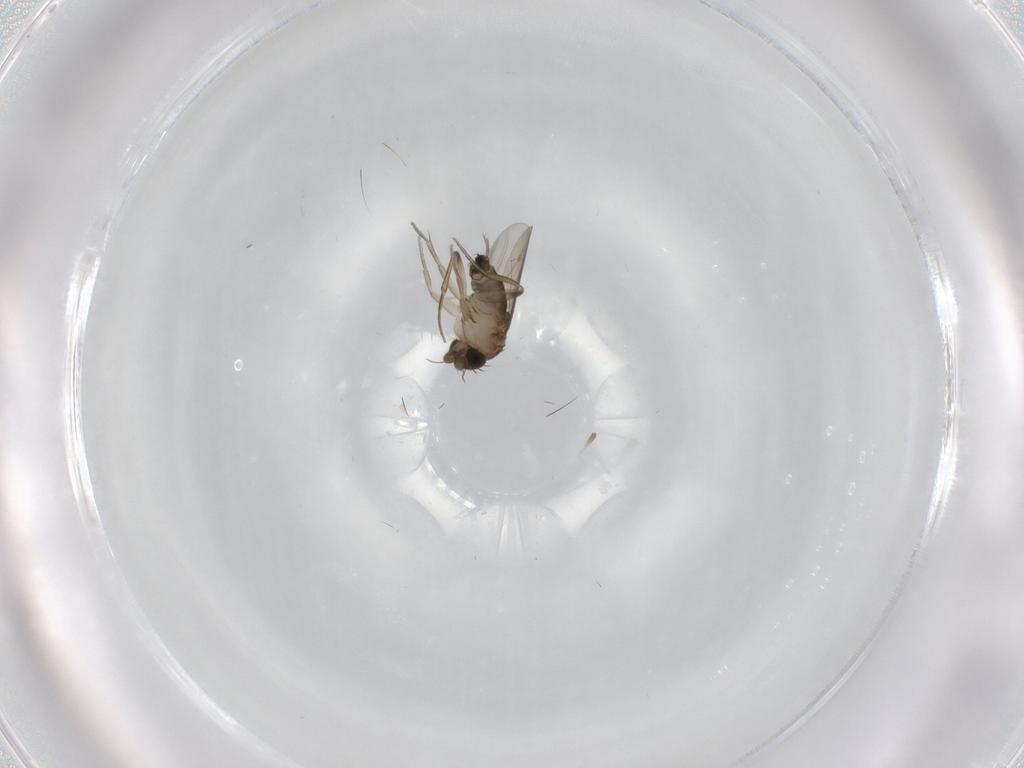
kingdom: Animalia
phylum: Arthropoda
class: Insecta
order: Diptera
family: Phoridae
